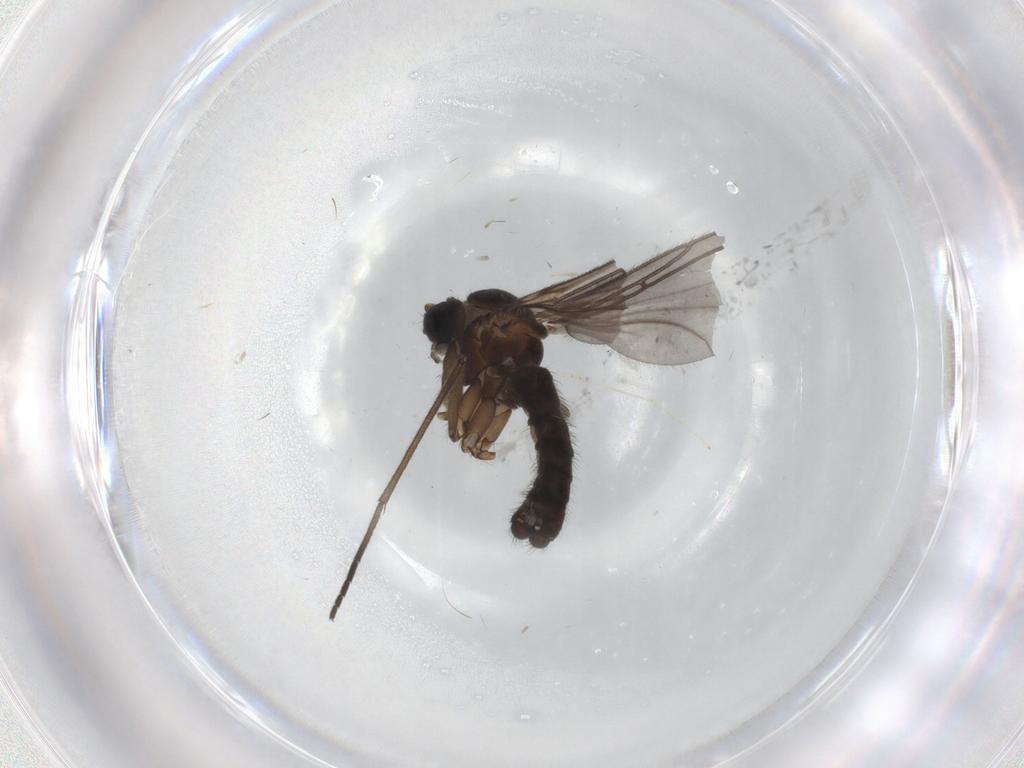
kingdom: Animalia
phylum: Arthropoda
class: Insecta
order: Diptera
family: Sciaridae
